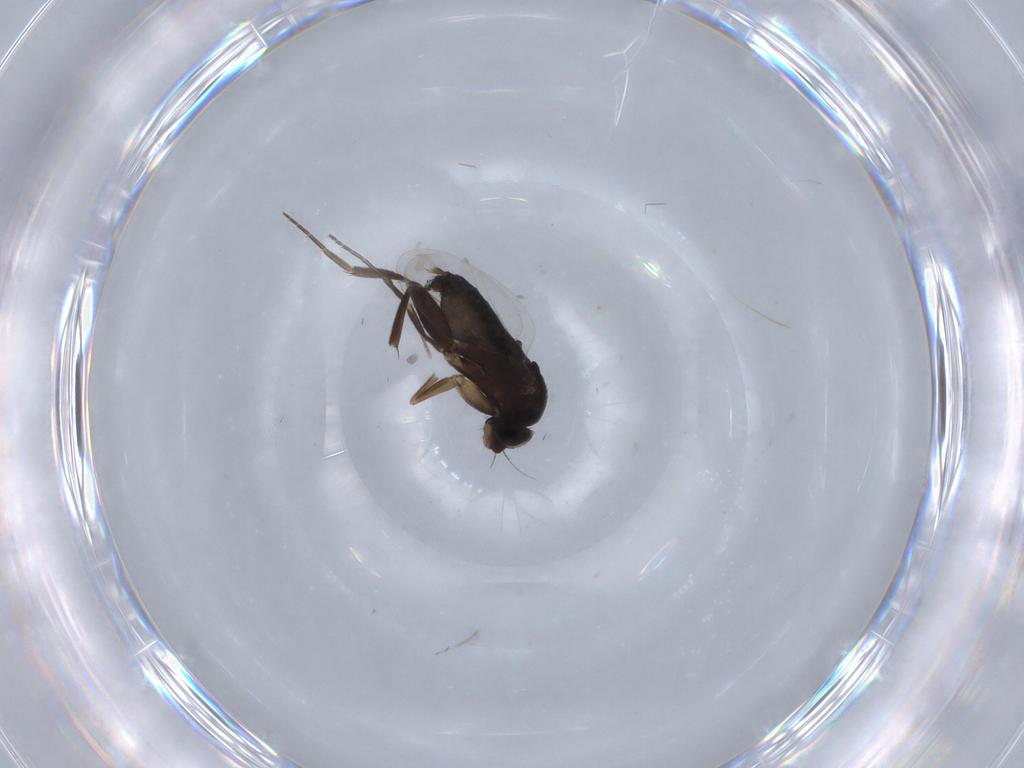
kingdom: Animalia
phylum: Arthropoda
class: Insecta
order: Diptera
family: Phoridae
